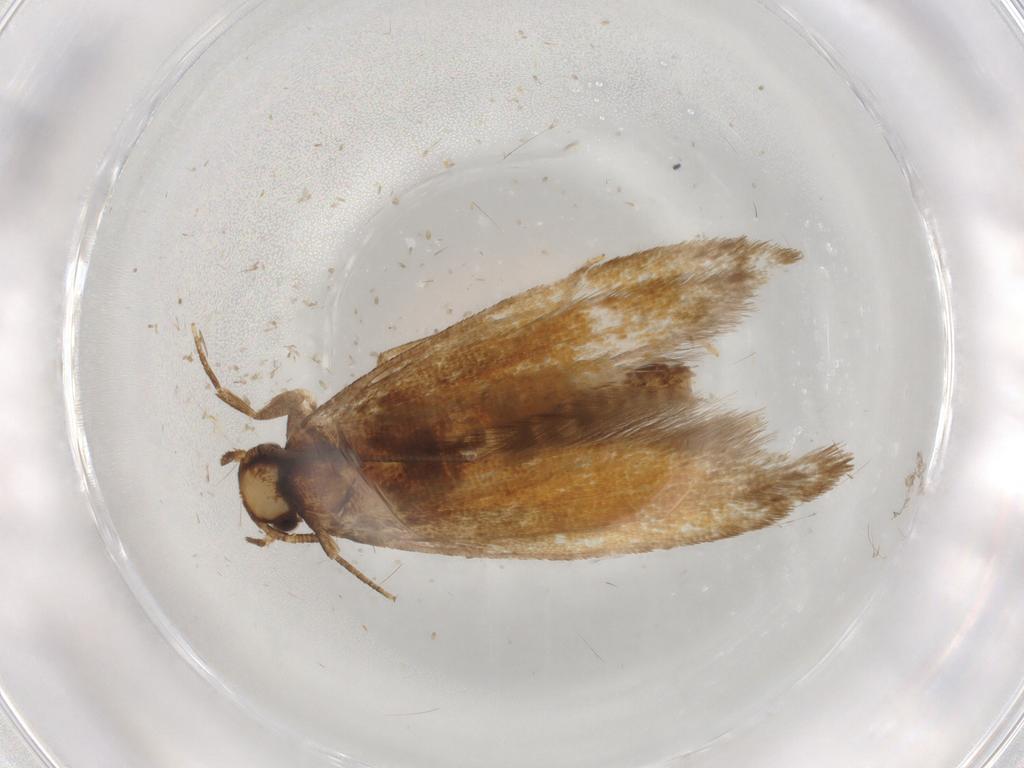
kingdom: Animalia
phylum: Arthropoda
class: Insecta
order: Lepidoptera
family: Tineidae
